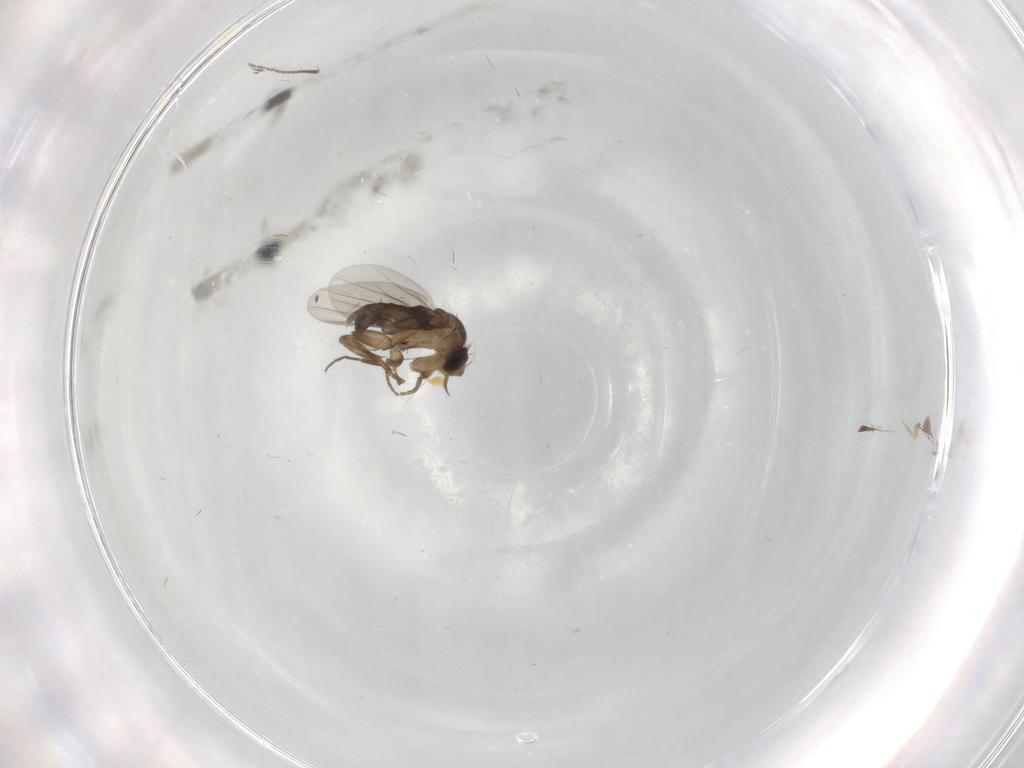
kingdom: Animalia
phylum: Arthropoda
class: Insecta
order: Diptera
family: Ceratopogonidae
